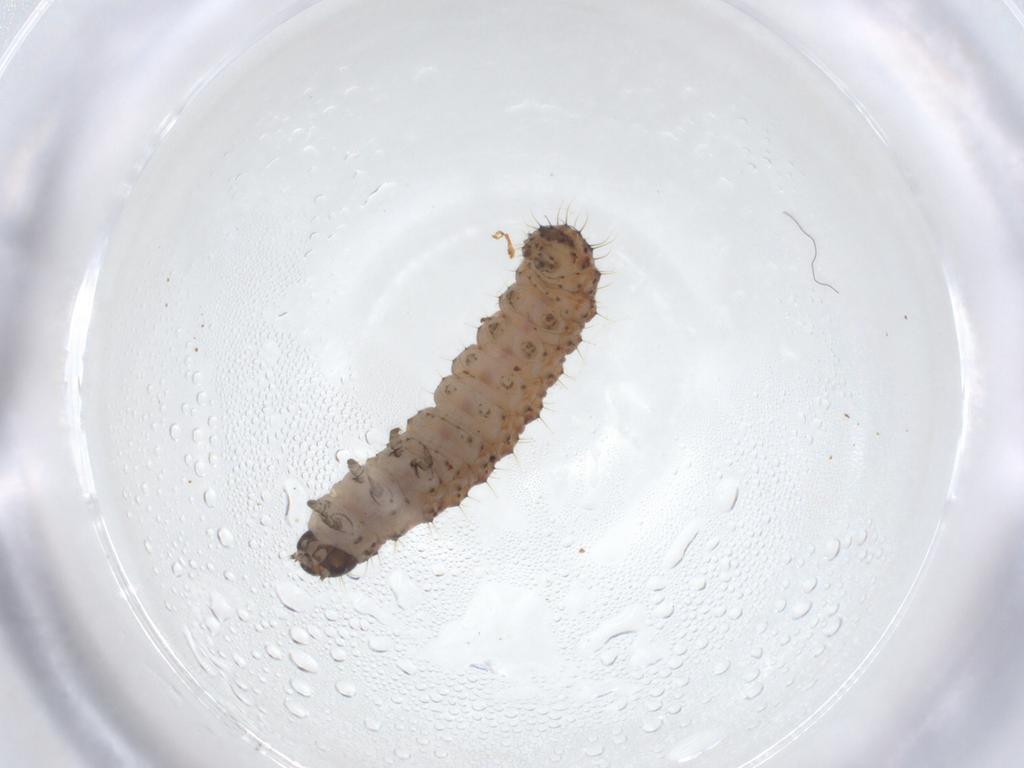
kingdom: Animalia
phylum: Arthropoda
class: Insecta
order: Lepidoptera
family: Noctuidae
